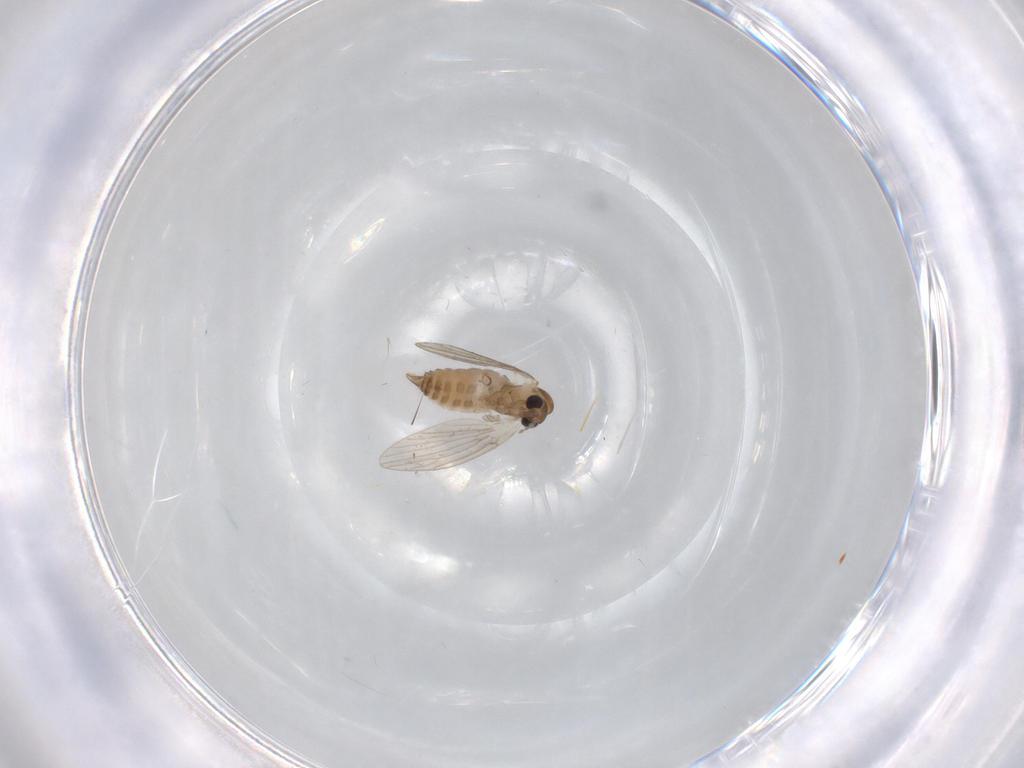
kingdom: Animalia
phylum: Arthropoda
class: Insecta
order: Diptera
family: Psychodidae
